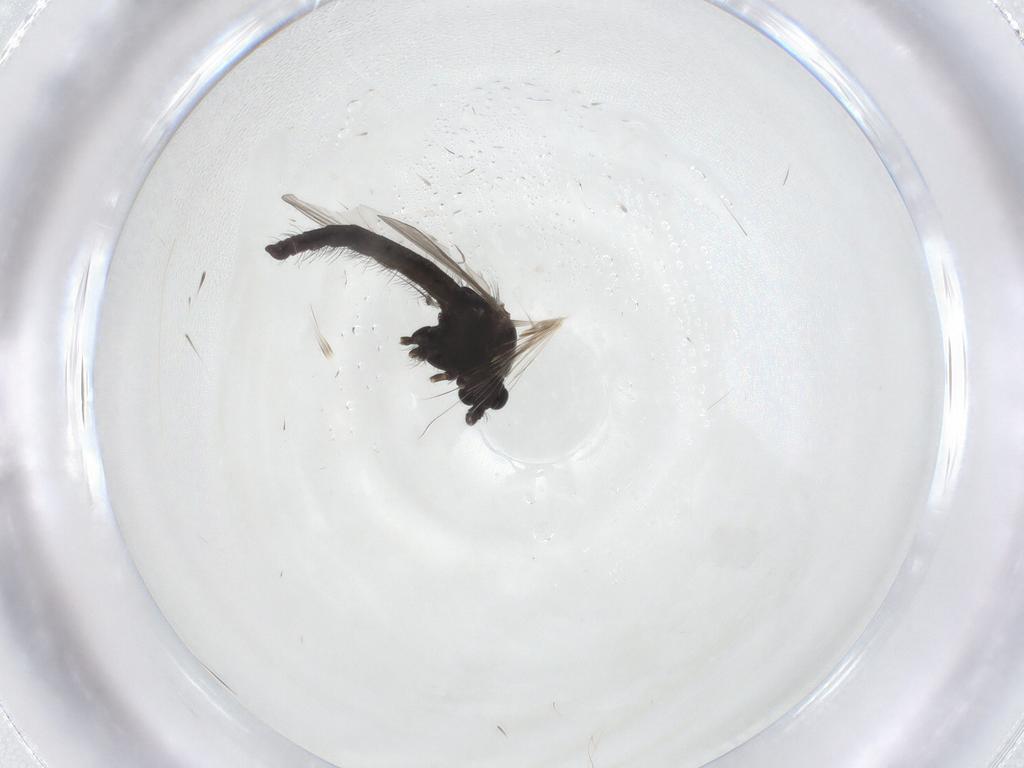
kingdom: Animalia
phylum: Arthropoda
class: Insecta
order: Diptera
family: Chironomidae
